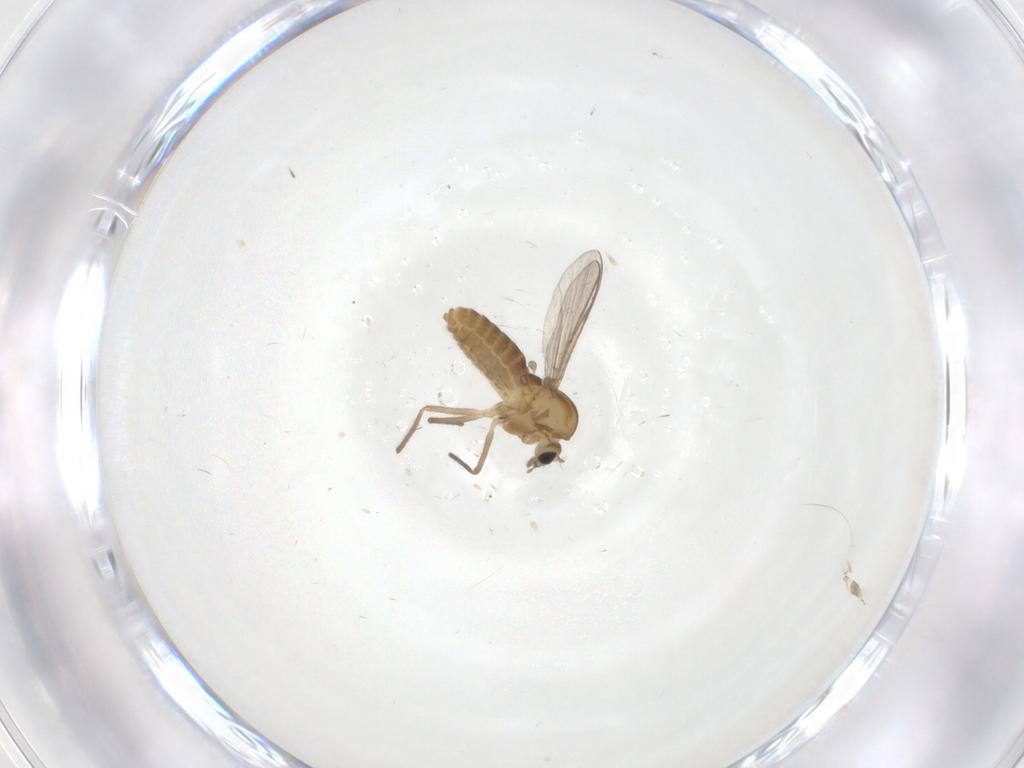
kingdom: Animalia
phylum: Arthropoda
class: Insecta
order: Diptera
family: Chironomidae
